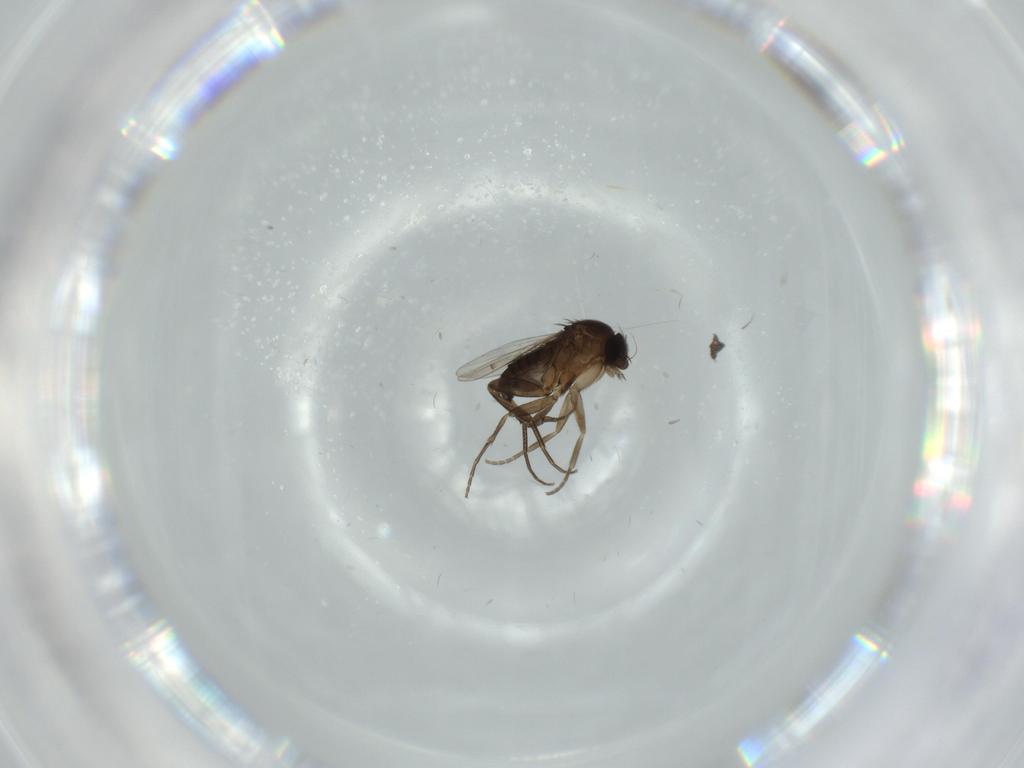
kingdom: Animalia
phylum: Arthropoda
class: Insecta
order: Diptera
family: Phoridae
